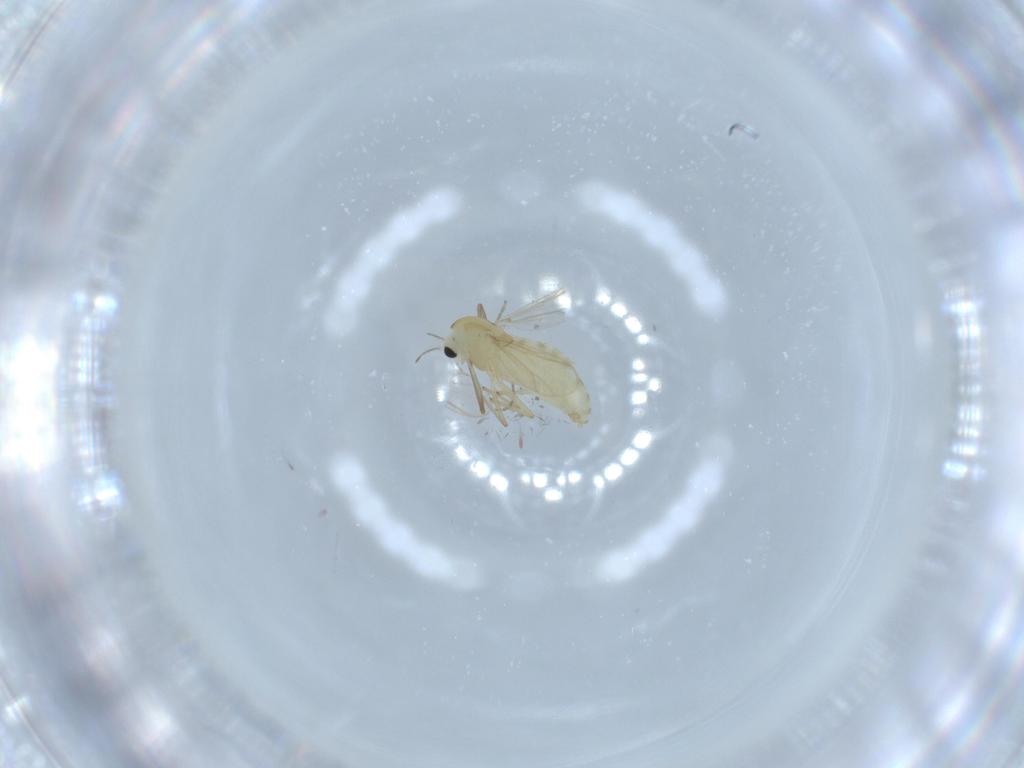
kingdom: Animalia
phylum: Arthropoda
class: Insecta
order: Diptera
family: Chironomidae
